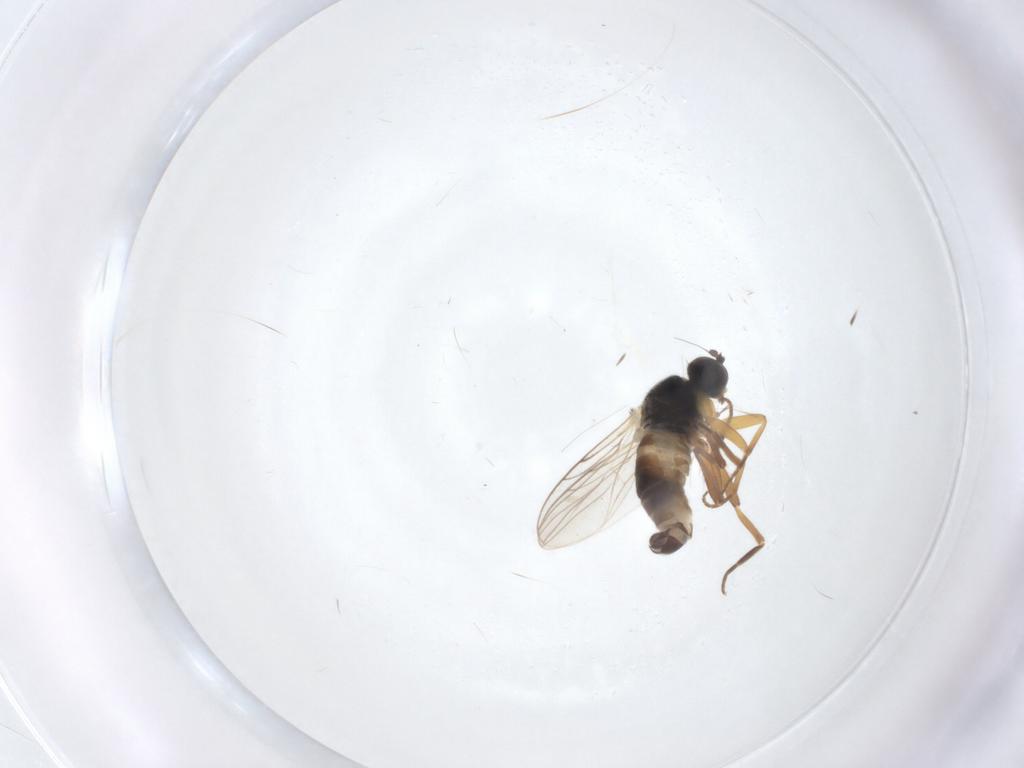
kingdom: Animalia
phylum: Arthropoda
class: Insecta
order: Diptera
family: Hybotidae
